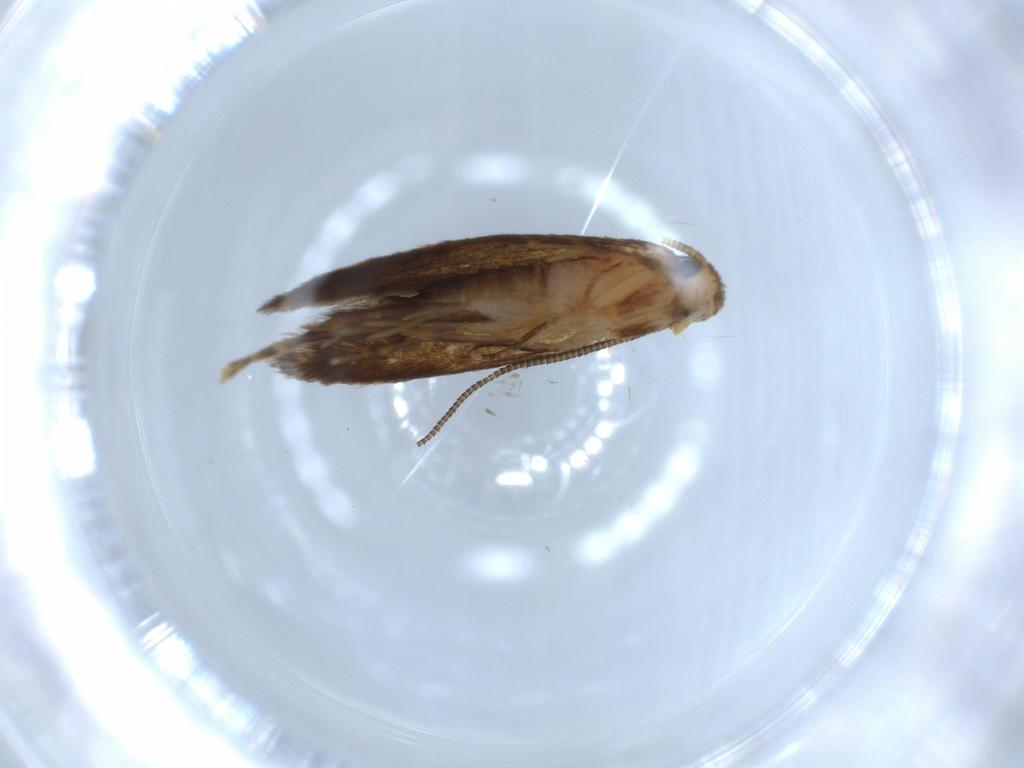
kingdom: Animalia
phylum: Arthropoda
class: Insecta
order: Lepidoptera
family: Tineidae
